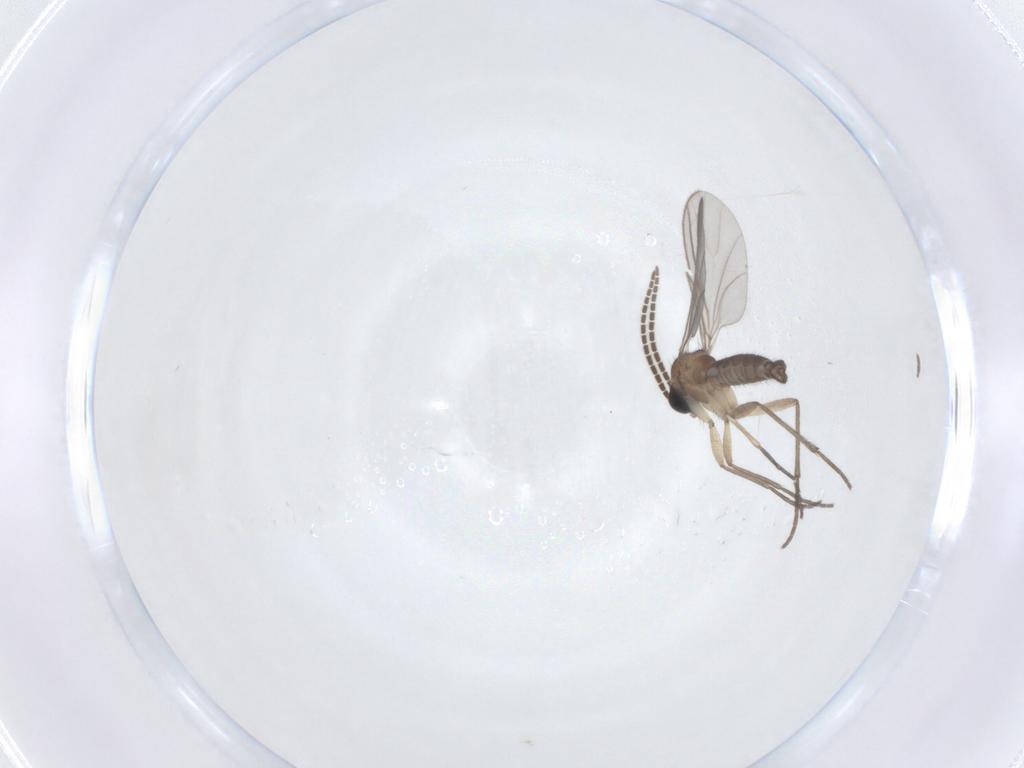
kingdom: Animalia
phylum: Arthropoda
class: Insecta
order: Diptera
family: Sciaridae
